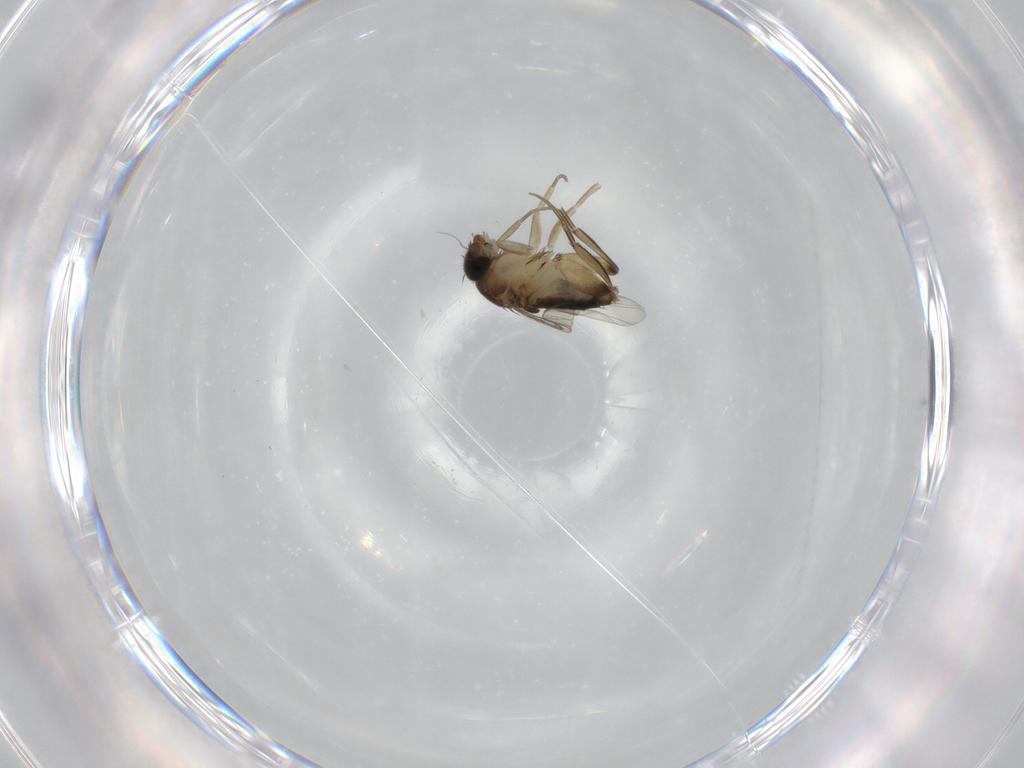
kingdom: Animalia
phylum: Arthropoda
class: Insecta
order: Diptera
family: Phoridae
